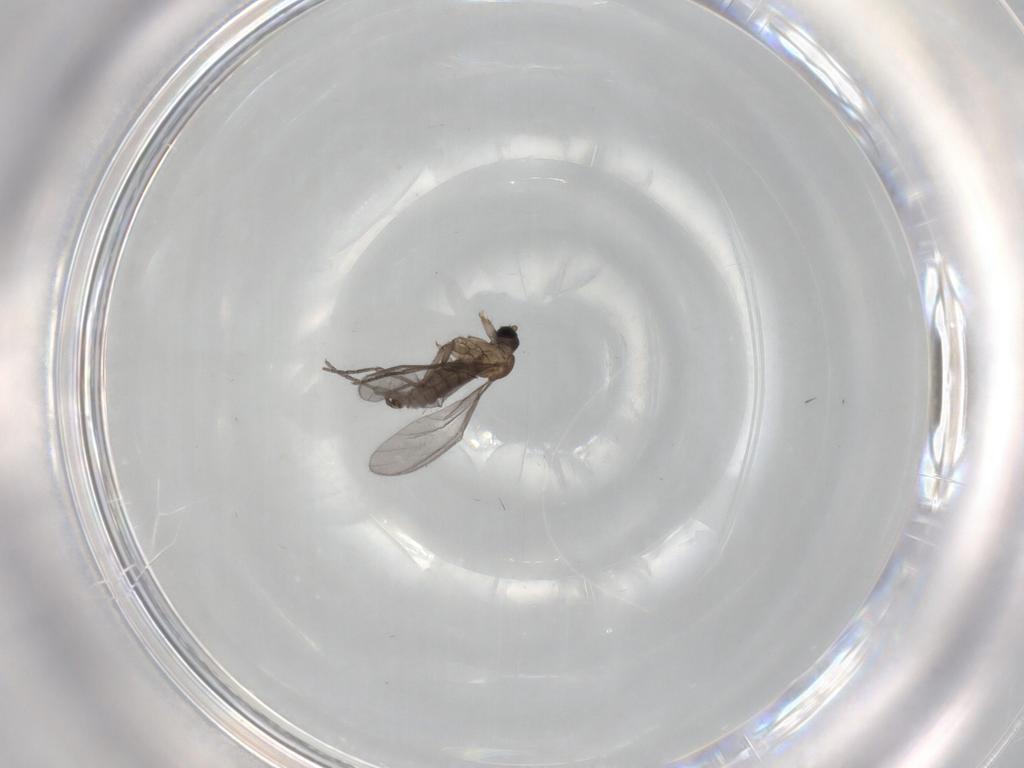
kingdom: Animalia
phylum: Arthropoda
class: Insecta
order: Diptera
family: Sciaridae
